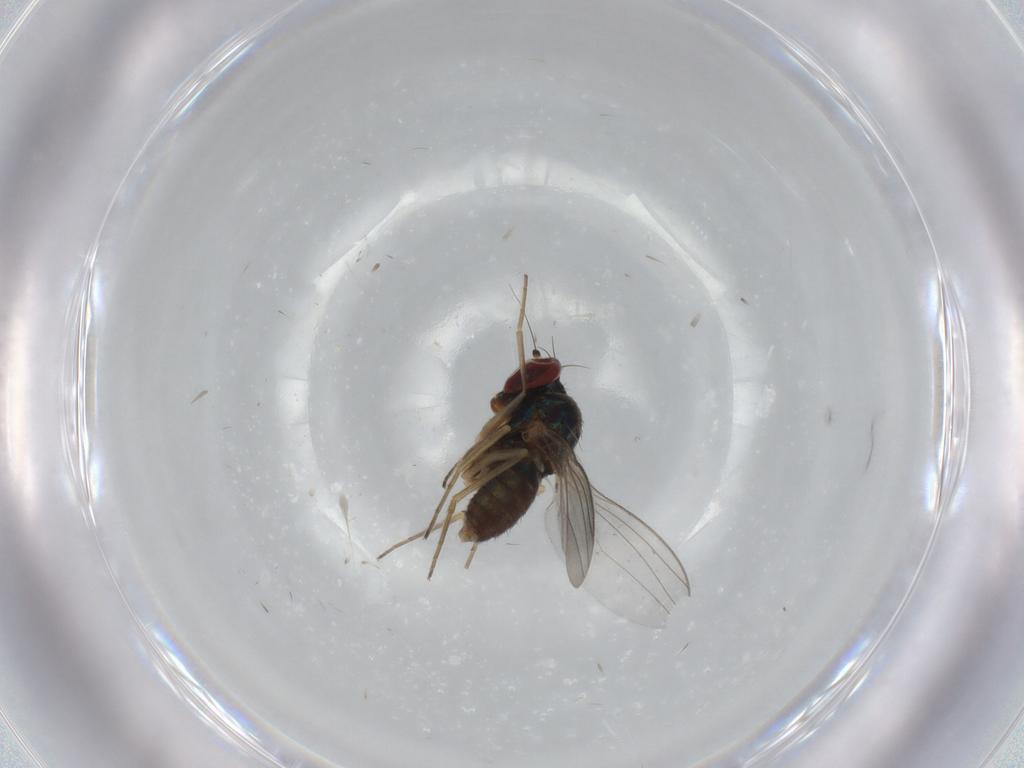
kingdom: Animalia
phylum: Arthropoda
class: Insecta
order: Diptera
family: Dolichopodidae
